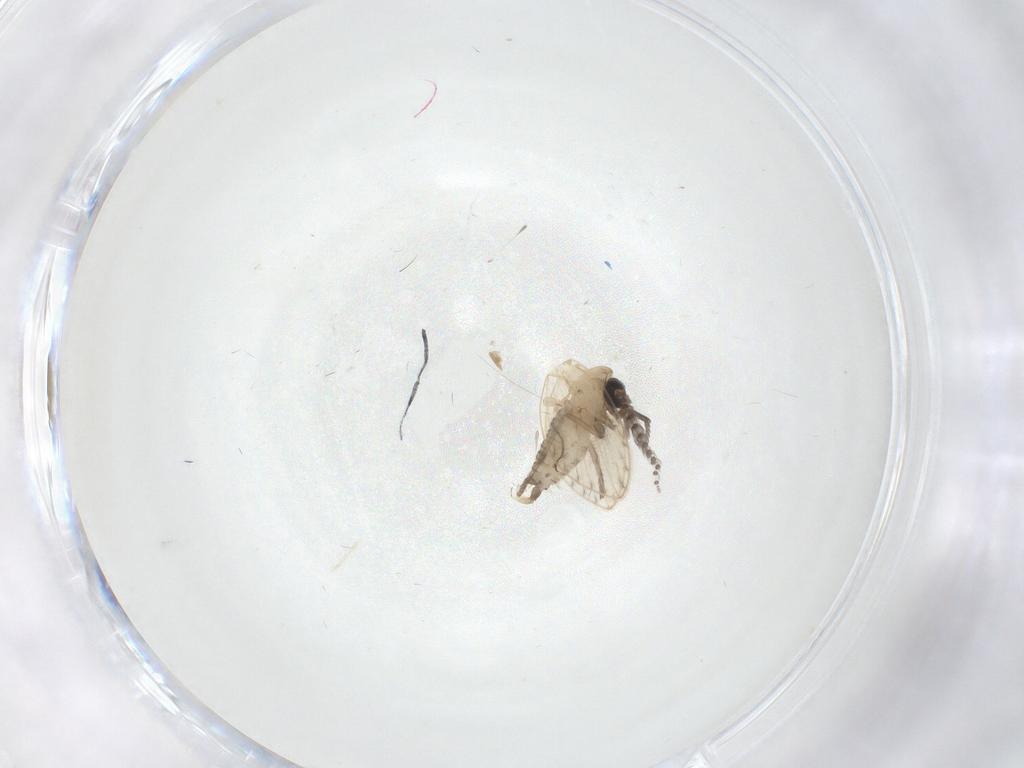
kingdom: Animalia
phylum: Arthropoda
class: Insecta
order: Diptera
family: Psychodidae
